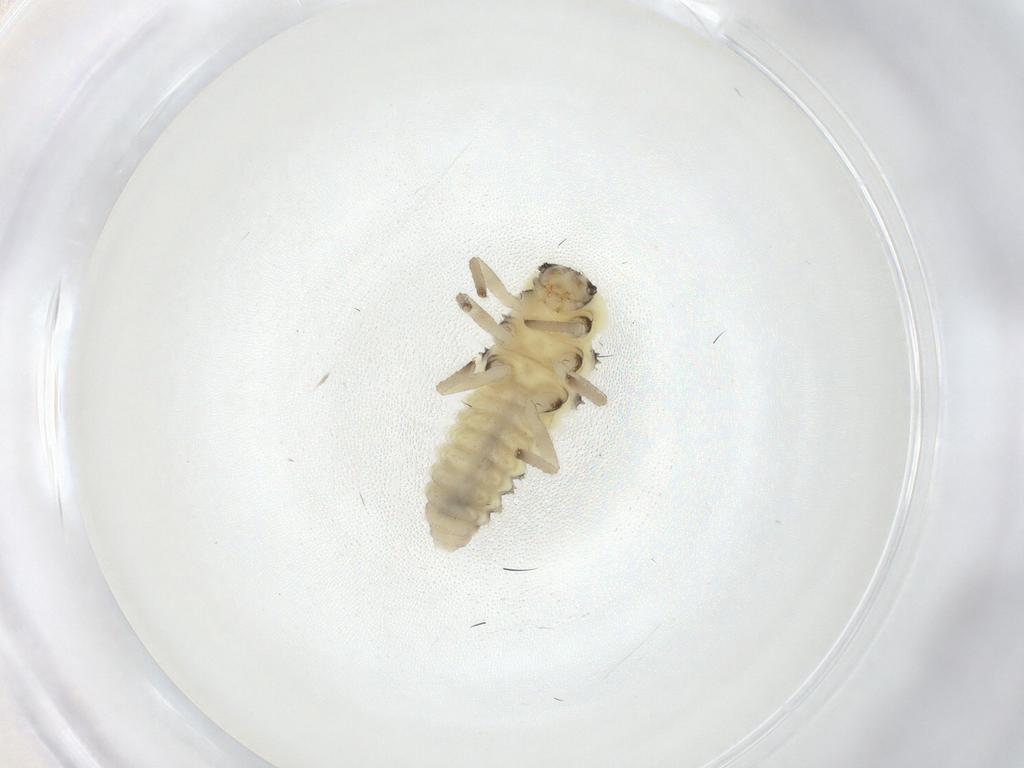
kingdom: Animalia
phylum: Arthropoda
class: Insecta
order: Coleoptera
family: Coccinellidae
